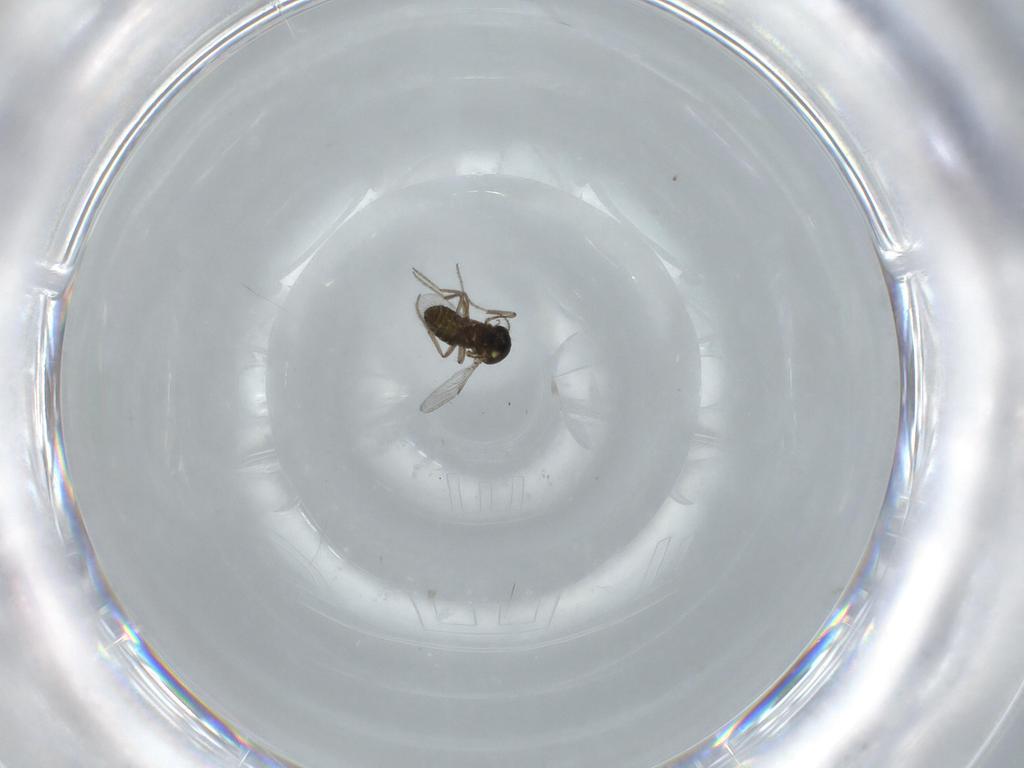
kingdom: Animalia
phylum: Arthropoda
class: Insecta
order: Diptera
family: Ceratopogonidae
